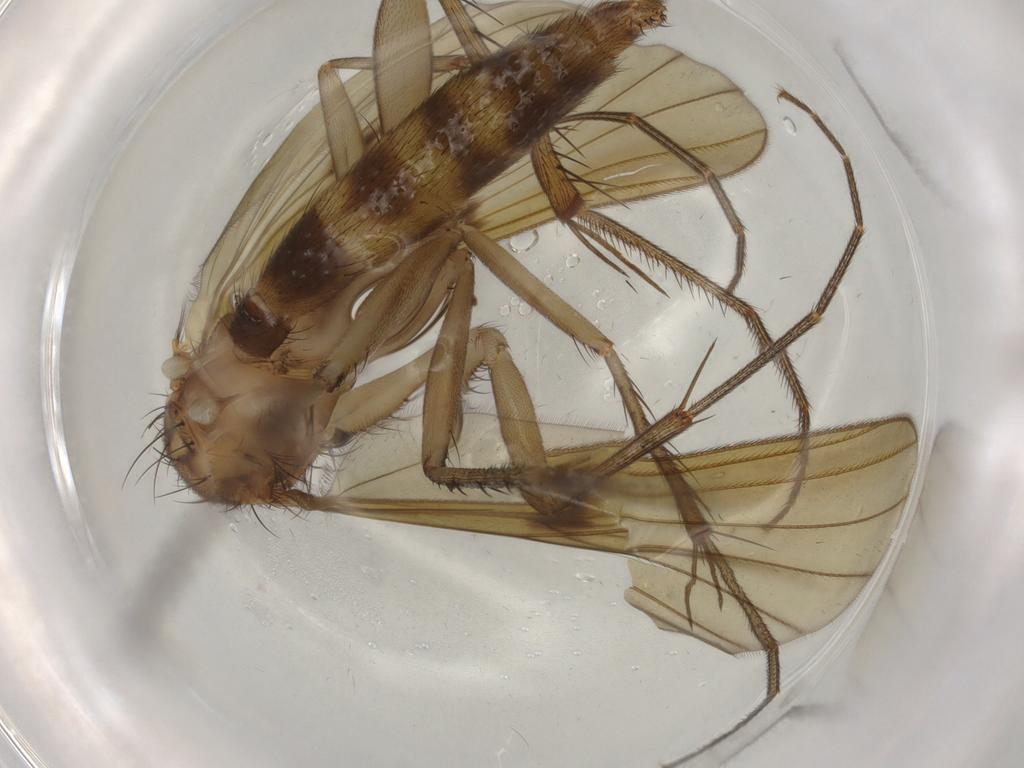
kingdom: Animalia
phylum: Arthropoda
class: Insecta
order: Diptera
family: Mycetophilidae
